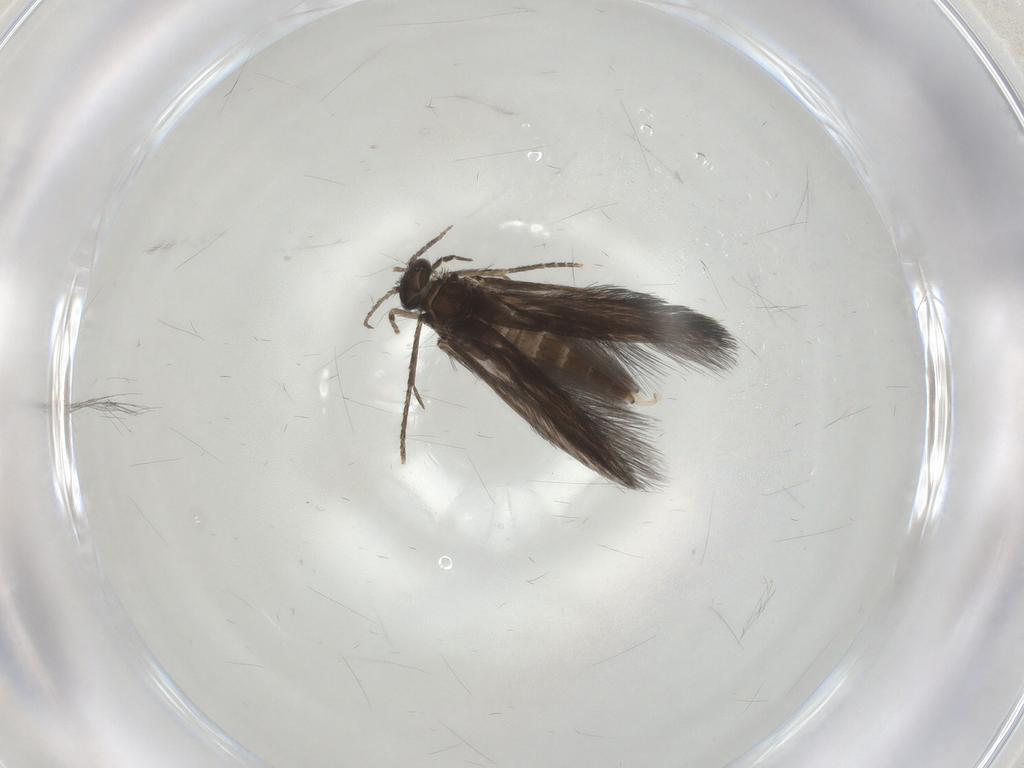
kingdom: Animalia
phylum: Arthropoda
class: Insecta
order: Trichoptera
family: Hydroptilidae
